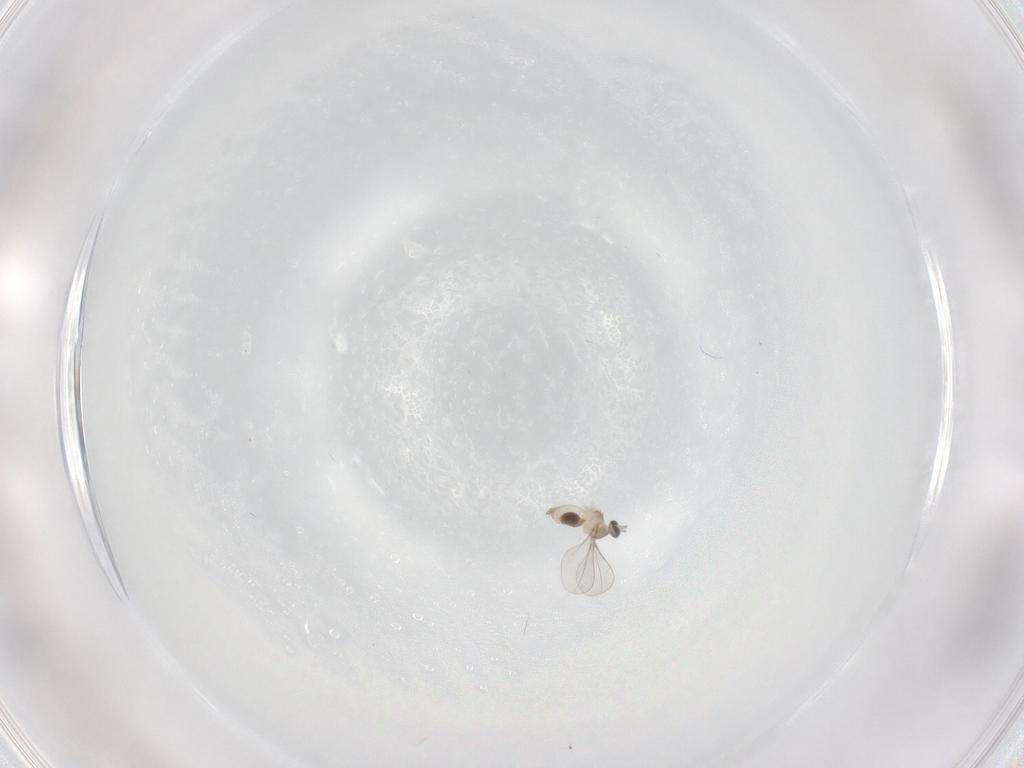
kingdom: Animalia
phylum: Arthropoda
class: Insecta
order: Diptera
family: Cecidomyiidae
